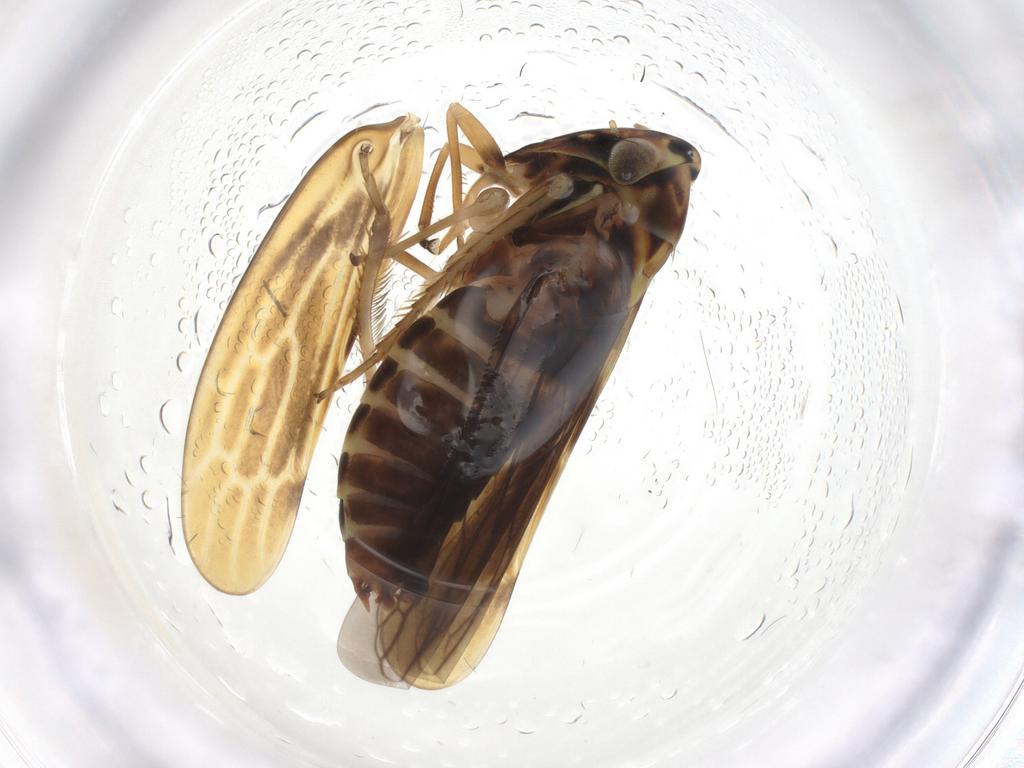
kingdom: Animalia
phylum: Arthropoda
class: Insecta
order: Hemiptera
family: Cicadellidae
